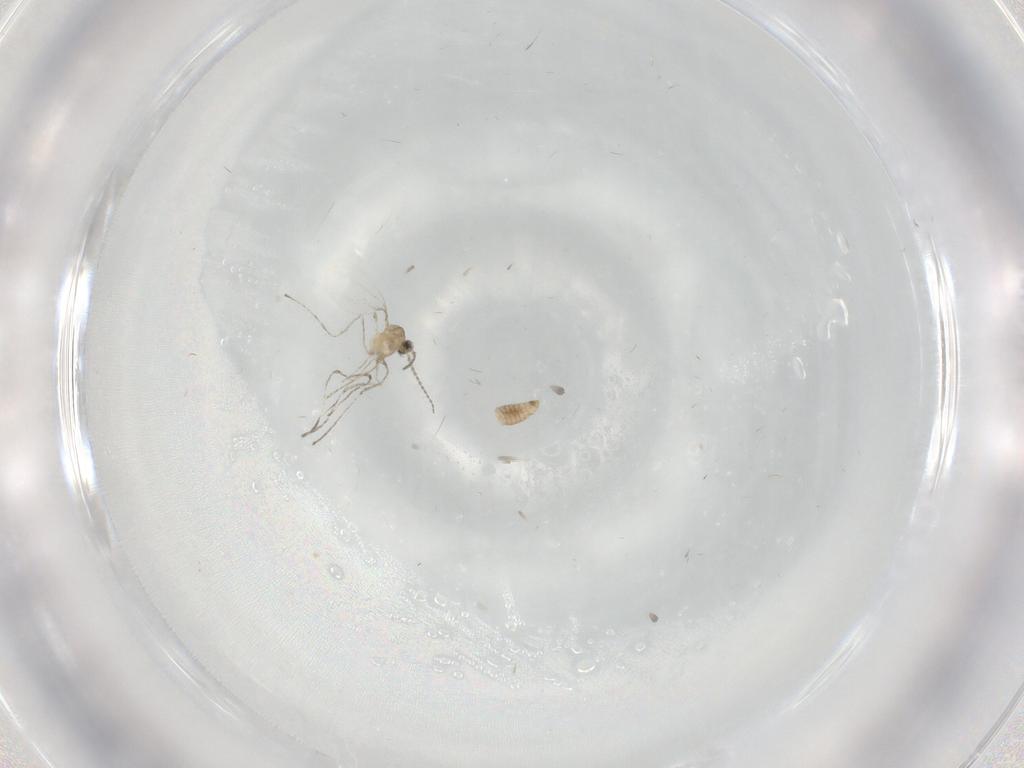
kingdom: Animalia
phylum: Arthropoda
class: Insecta
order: Diptera
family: Cecidomyiidae
